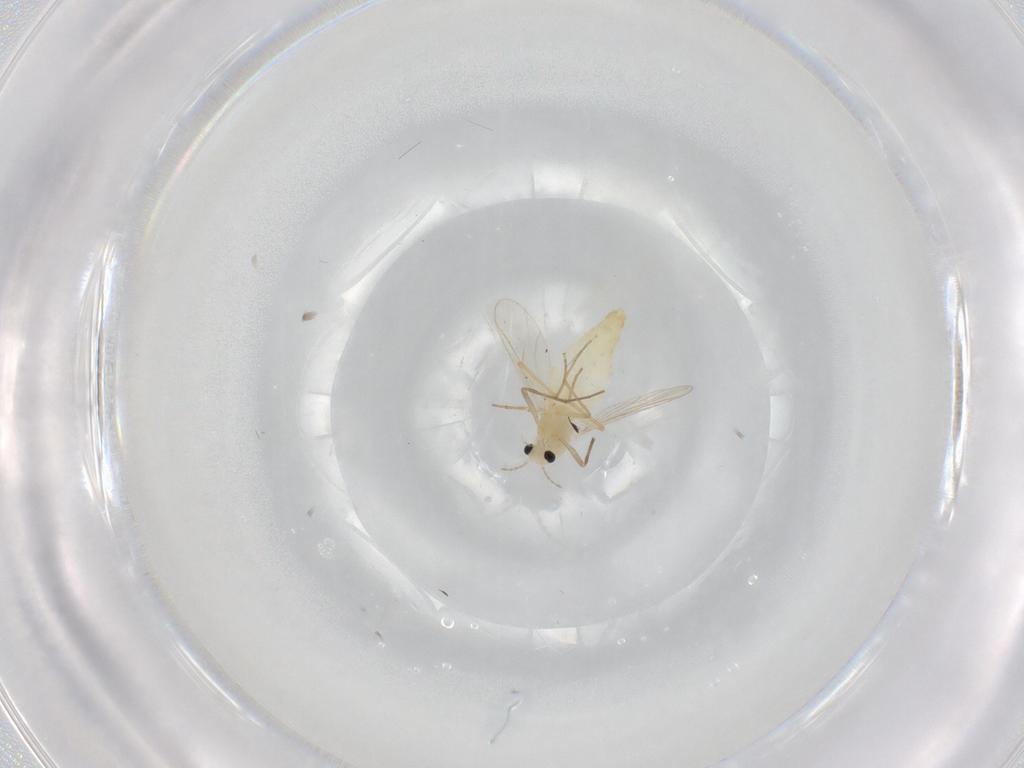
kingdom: Animalia
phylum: Arthropoda
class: Insecta
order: Diptera
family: Chironomidae
